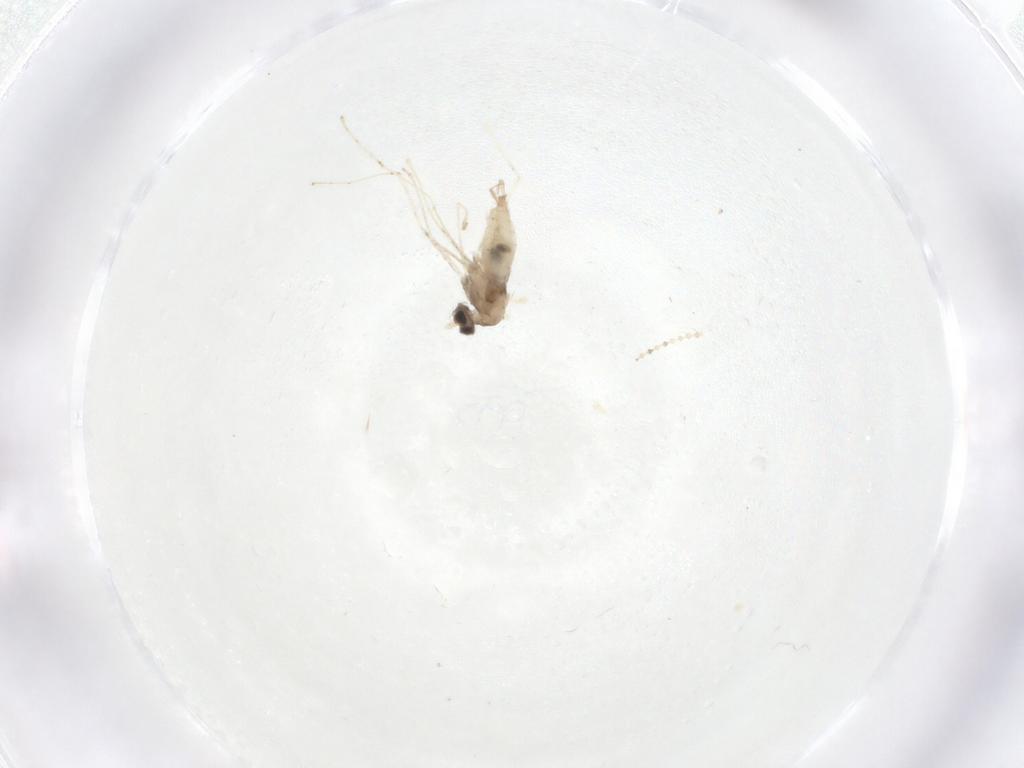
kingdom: Animalia
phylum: Arthropoda
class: Insecta
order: Diptera
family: Cecidomyiidae
